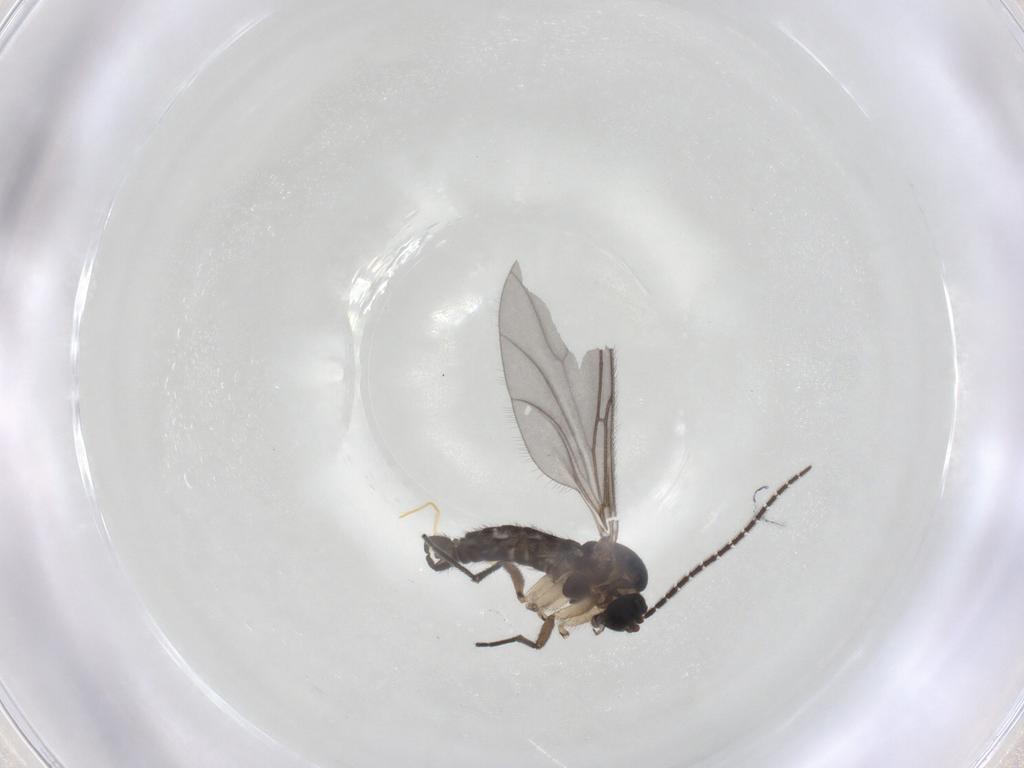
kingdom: Animalia
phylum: Arthropoda
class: Insecta
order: Diptera
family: Sciaridae
